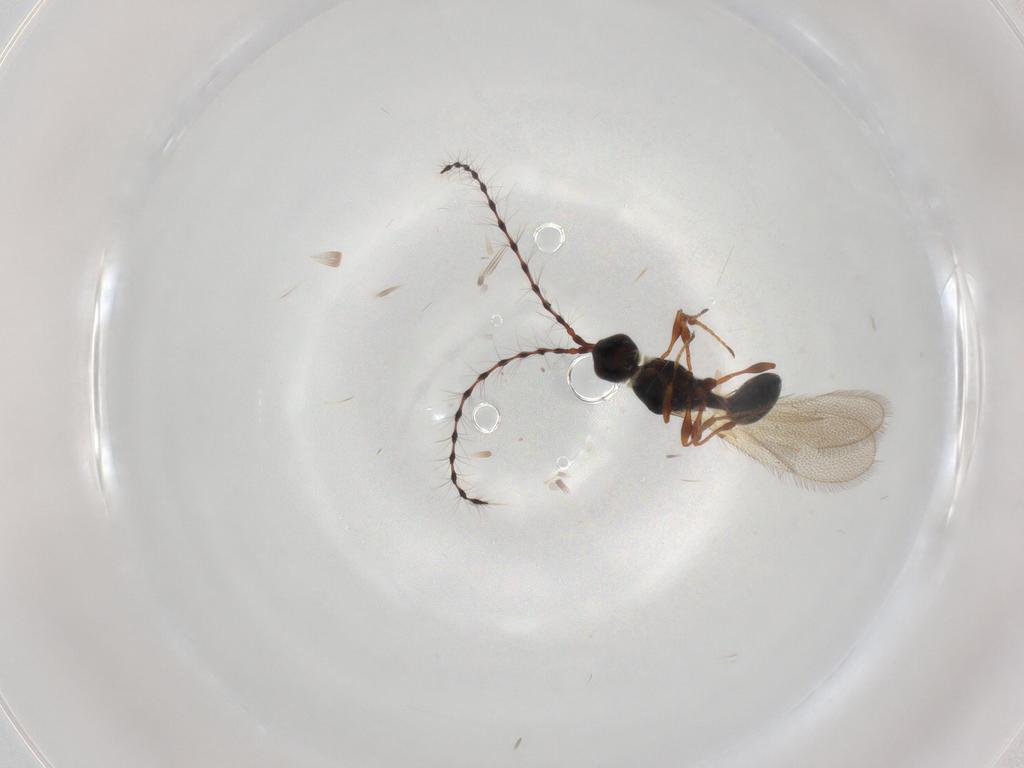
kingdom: Animalia
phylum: Arthropoda
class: Insecta
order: Hymenoptera
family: Diapriidae
